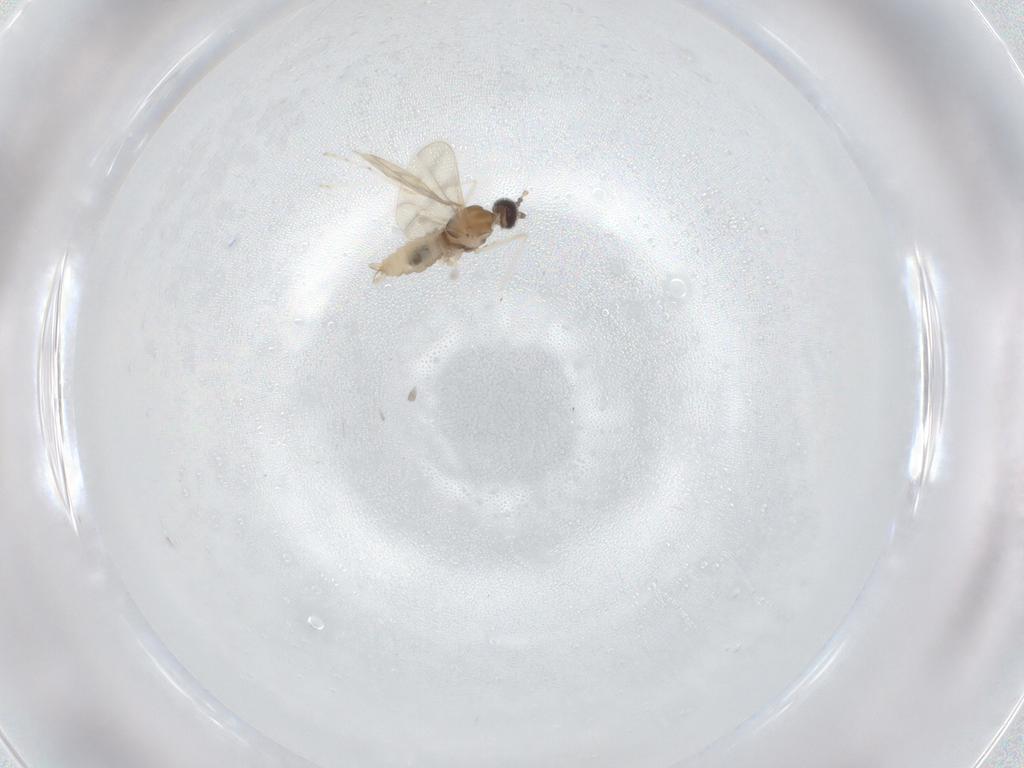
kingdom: Animalia
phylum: Arthropoda
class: Insecta
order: Diptera
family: Cecidomyiidae
